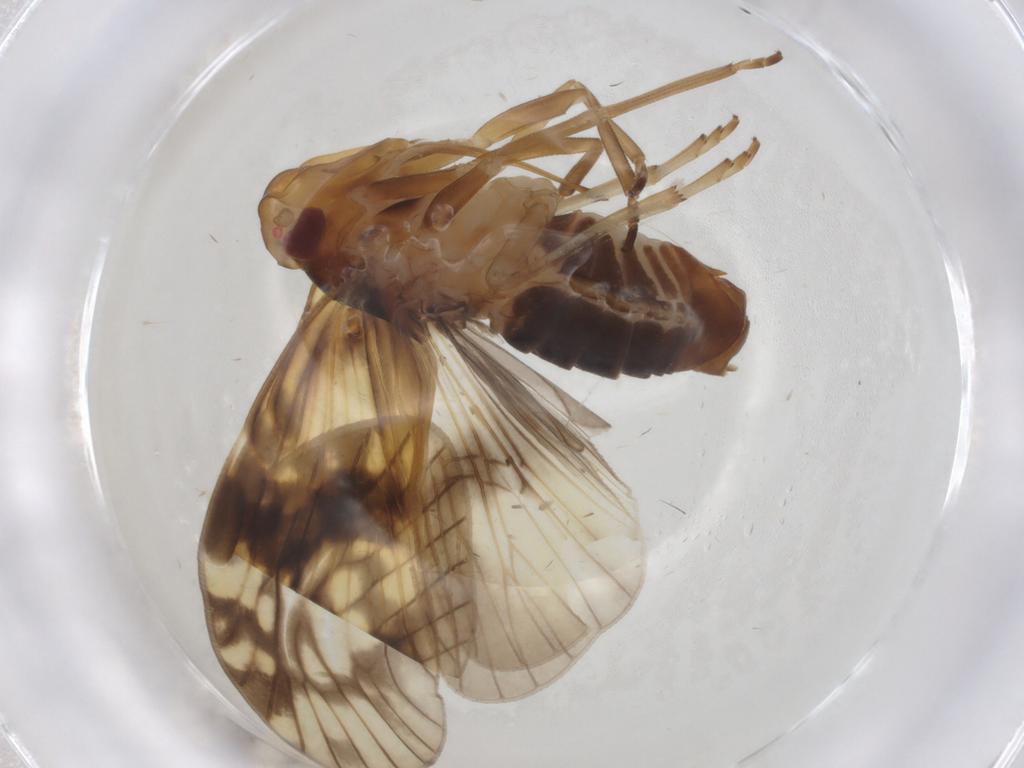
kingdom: Animalia
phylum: Arthropoda
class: Insecta
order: Hemiptera
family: Cixiidae
